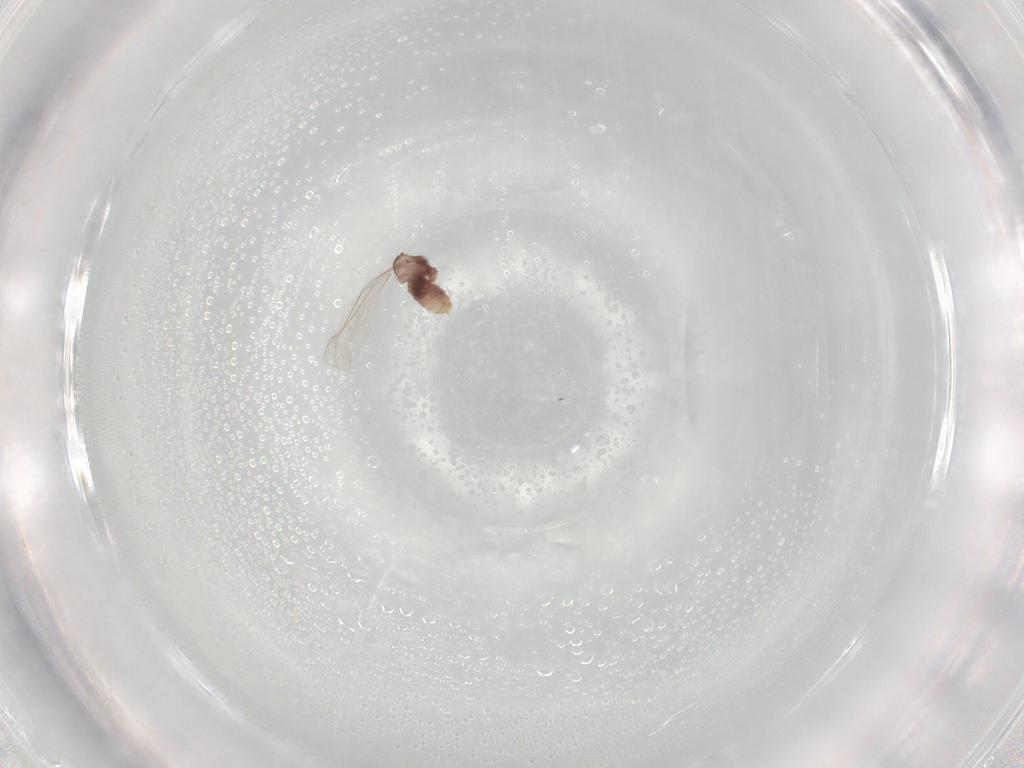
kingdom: Animalia
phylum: Arthropoda
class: Insecta
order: Diptera
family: Cecidomyiidae
